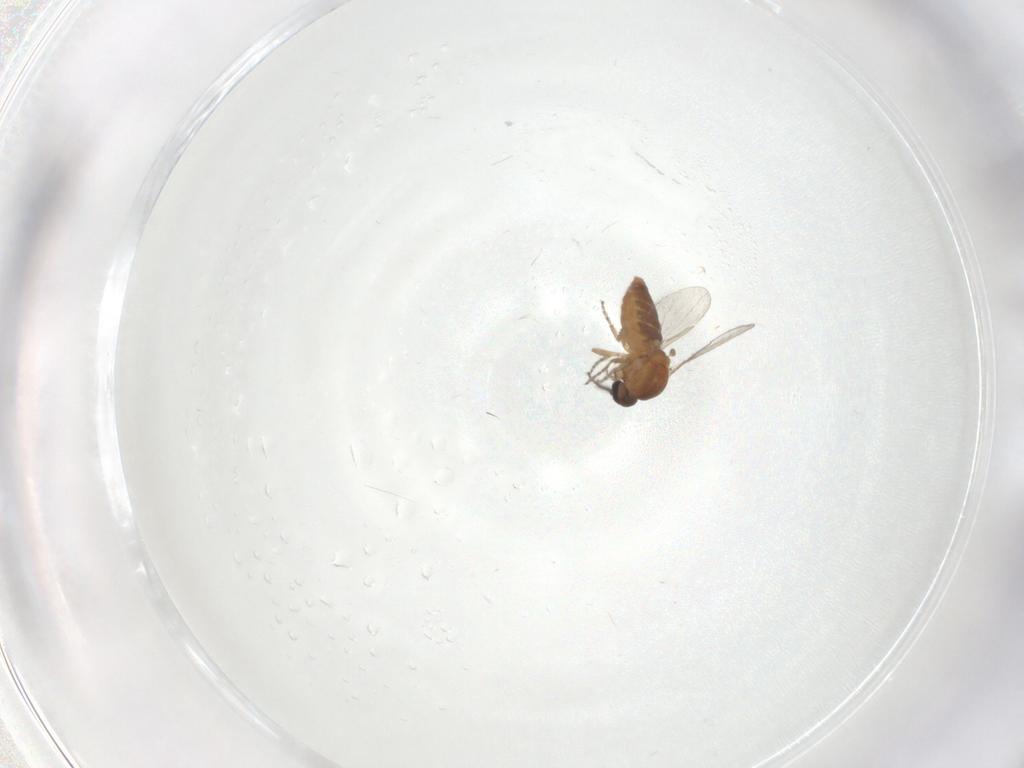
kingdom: Animalia
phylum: Arthropoda
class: Insecta
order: Diptera
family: Ceratopogonidae
